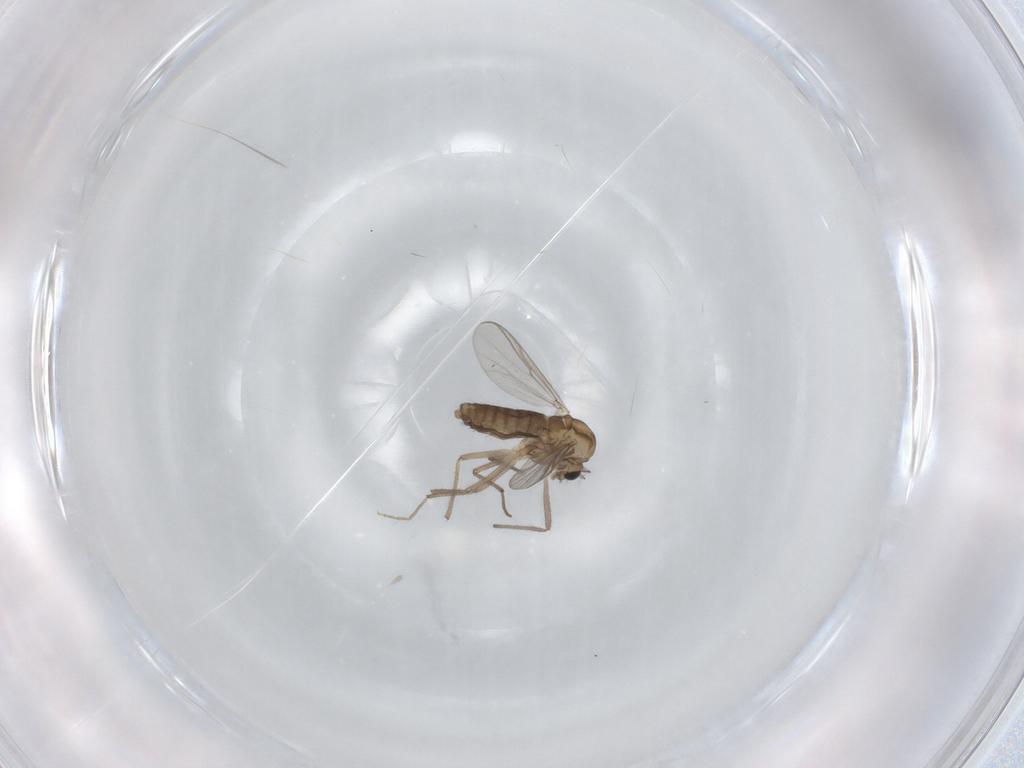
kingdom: Animalia
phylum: Arthropoda
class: Insecta
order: Diptera
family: Chironomidae
